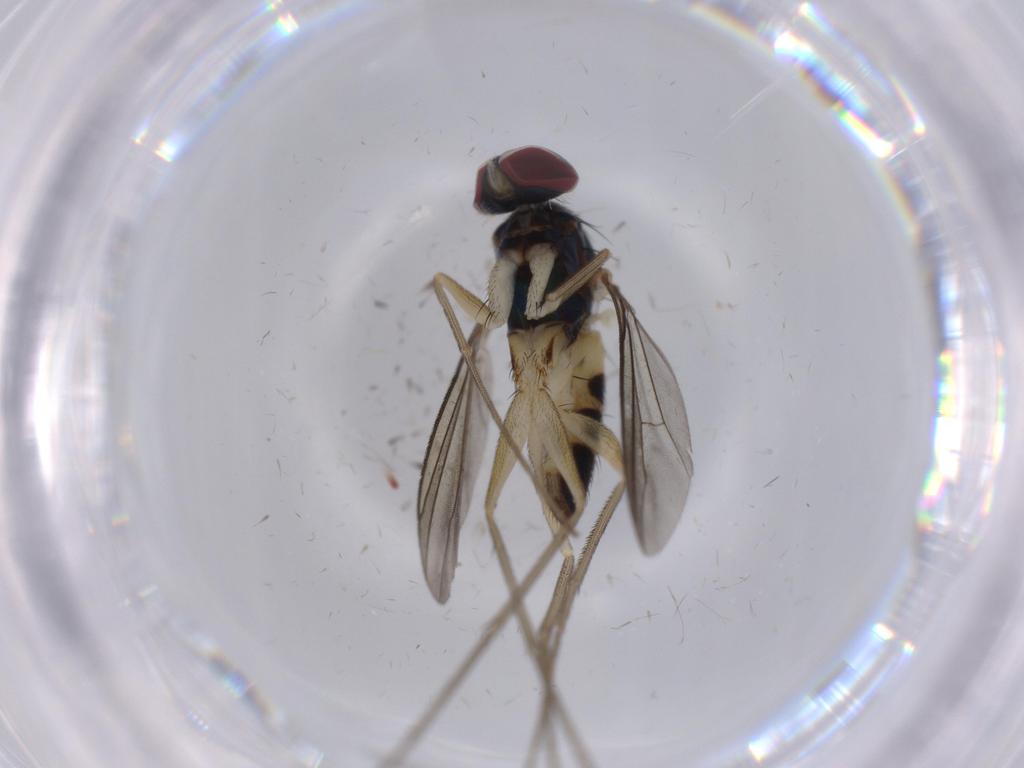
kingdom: Animalia
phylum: Arthropoda
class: Insecta
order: Diptera
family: Dolichopodidae
